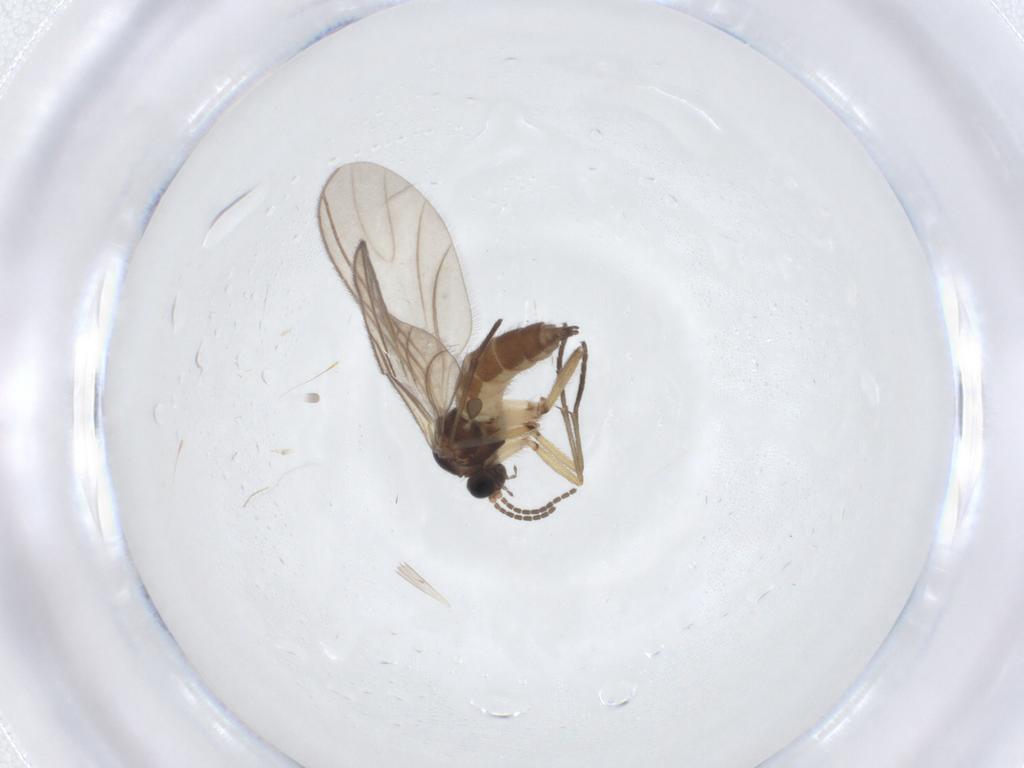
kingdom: Animalia
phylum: Arthropoda
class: Insecta
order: Diptera
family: Sciaridae
